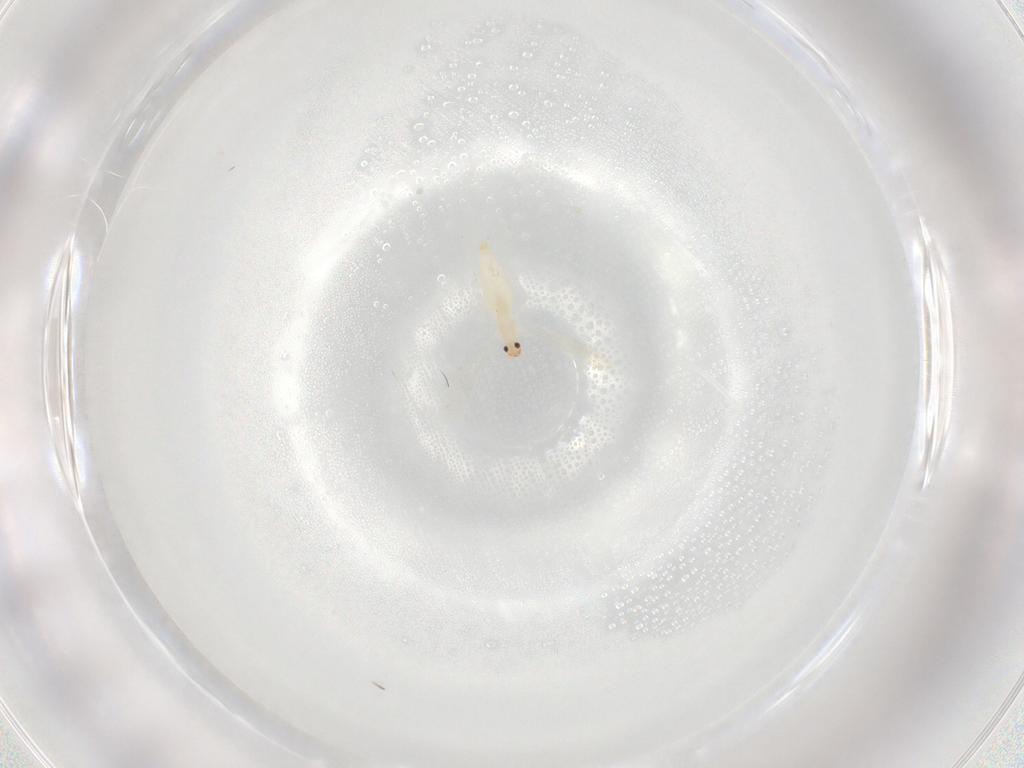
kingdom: Animalia
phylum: Arthropoda
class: Insecta
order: Diptera
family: Cecidomyiidae
